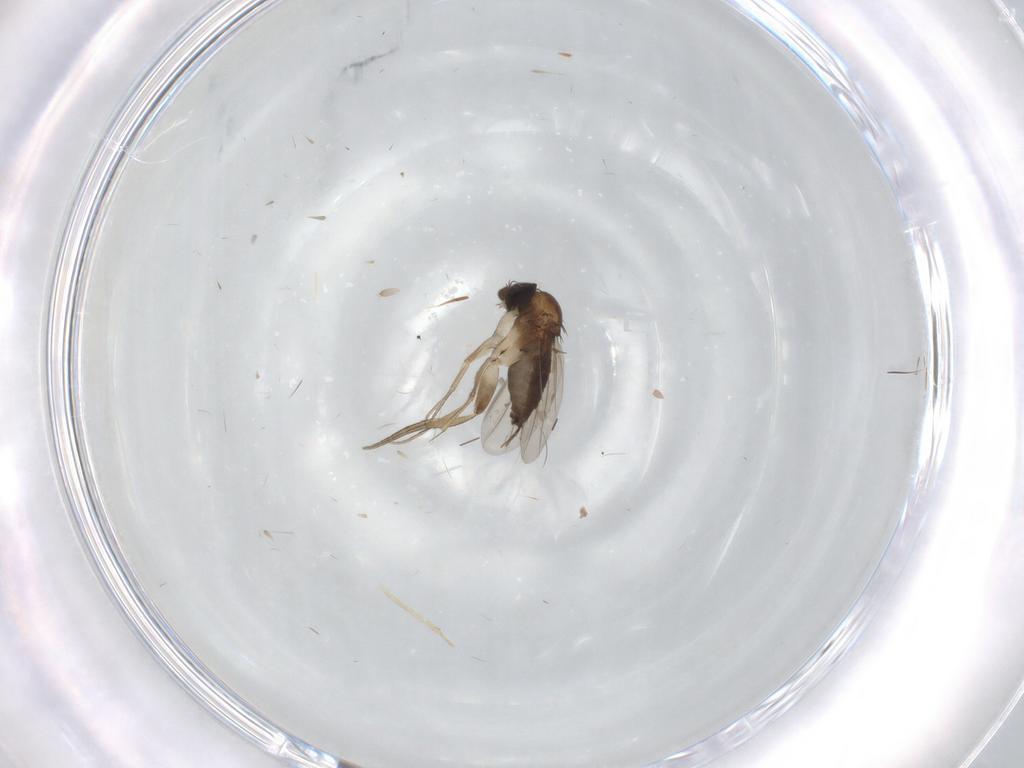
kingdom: Animalia
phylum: Arthropoda
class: Insecta
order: Diptera
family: Phoridae
